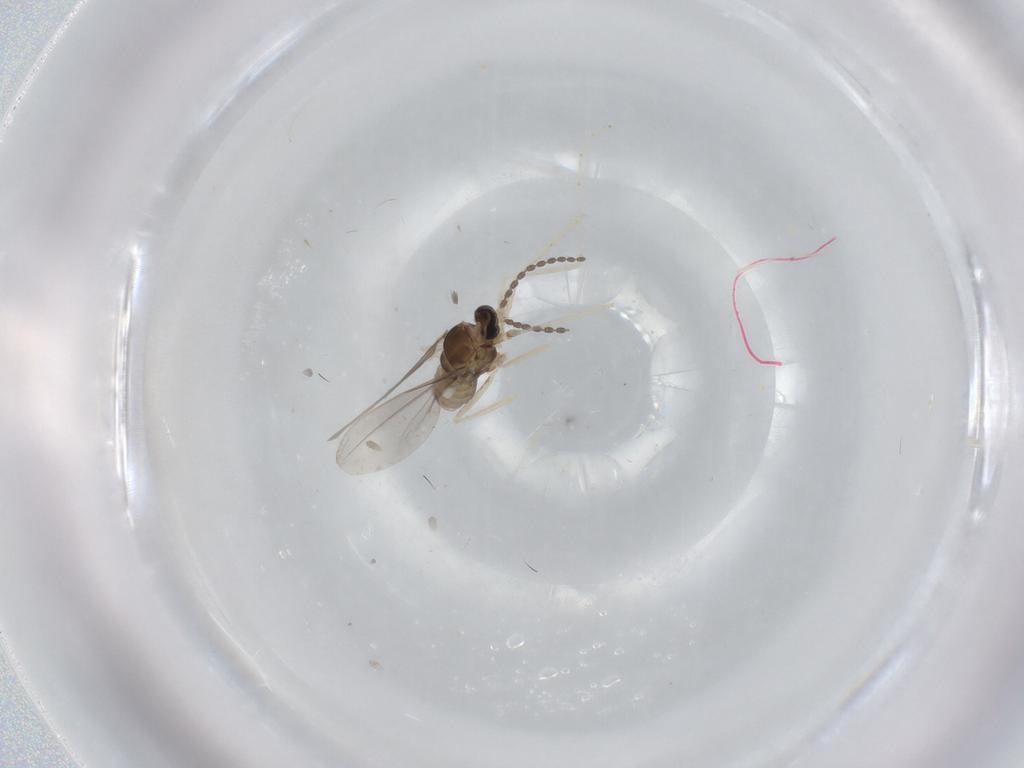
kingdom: Animalia
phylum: Arthropoda
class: Insecta
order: Diptera
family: Cecidomyiidae
